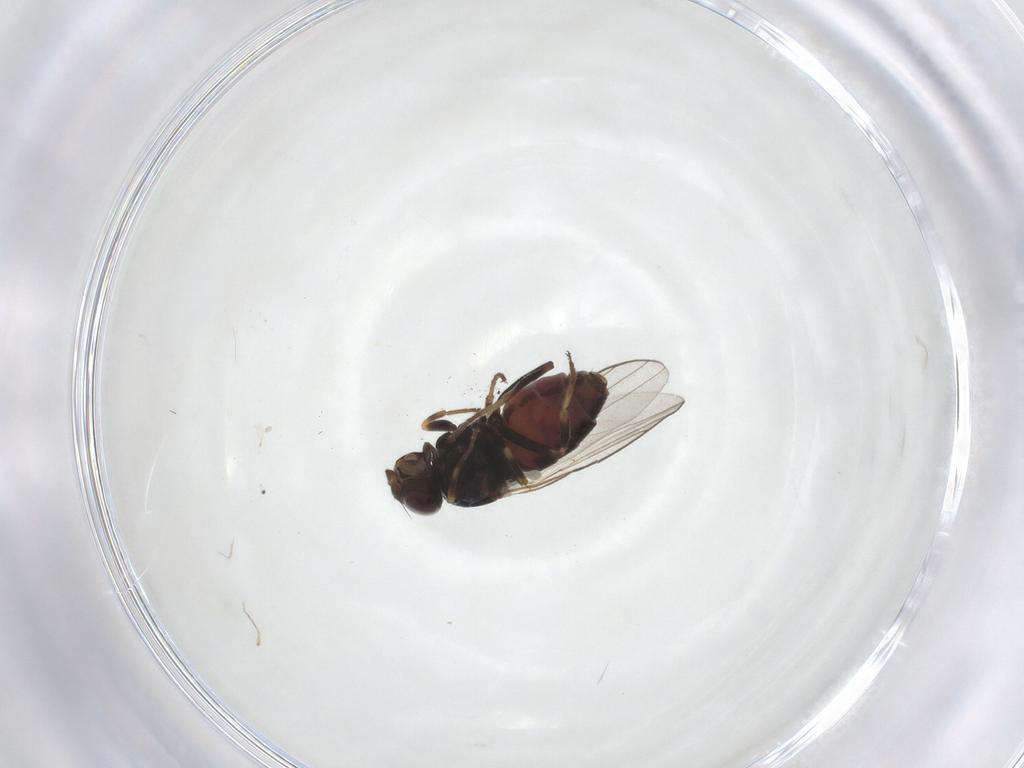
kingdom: Animalia
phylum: Arthropoda
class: Insecta
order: Diptera
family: Chloropidae
